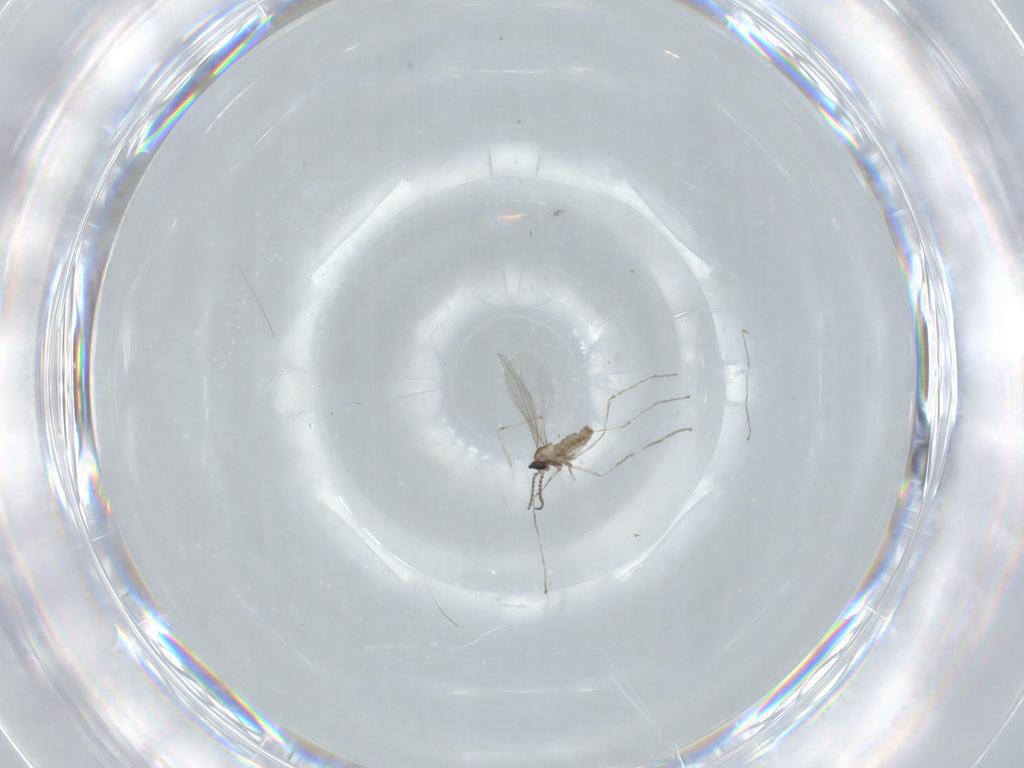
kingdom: Animalia
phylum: Arthropoda
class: Insecta
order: Diptera
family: Cecidomyiidae
